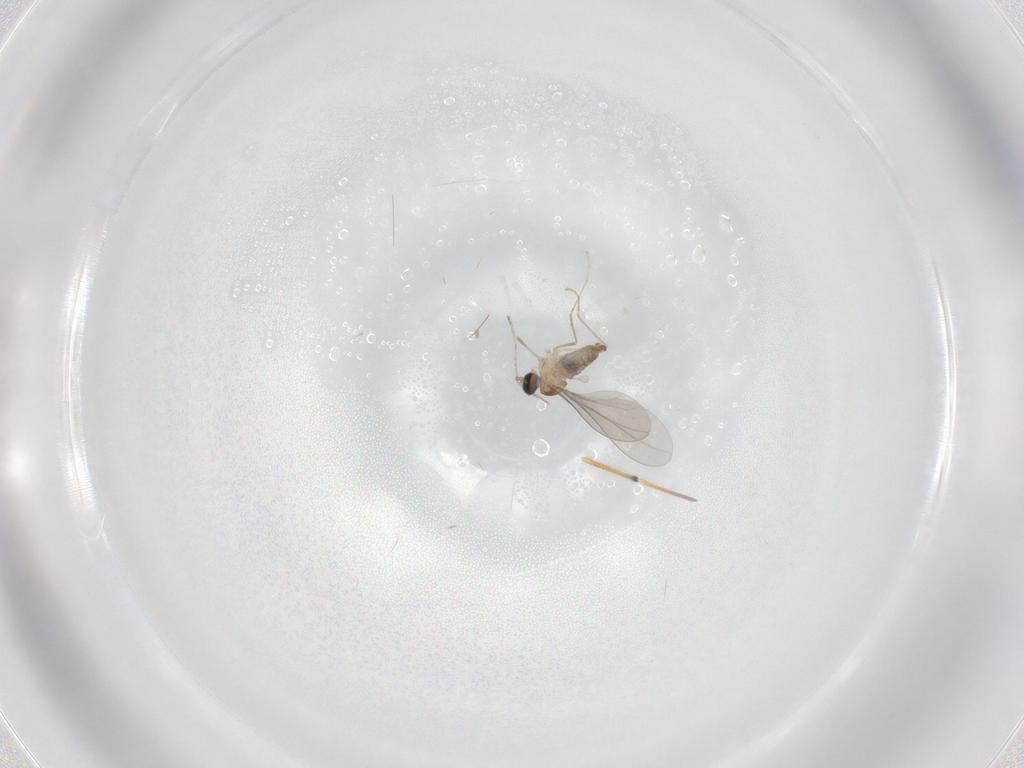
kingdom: Animalia
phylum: Arthropoda
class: Insecta
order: Diptera
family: Cecidomyiidae
